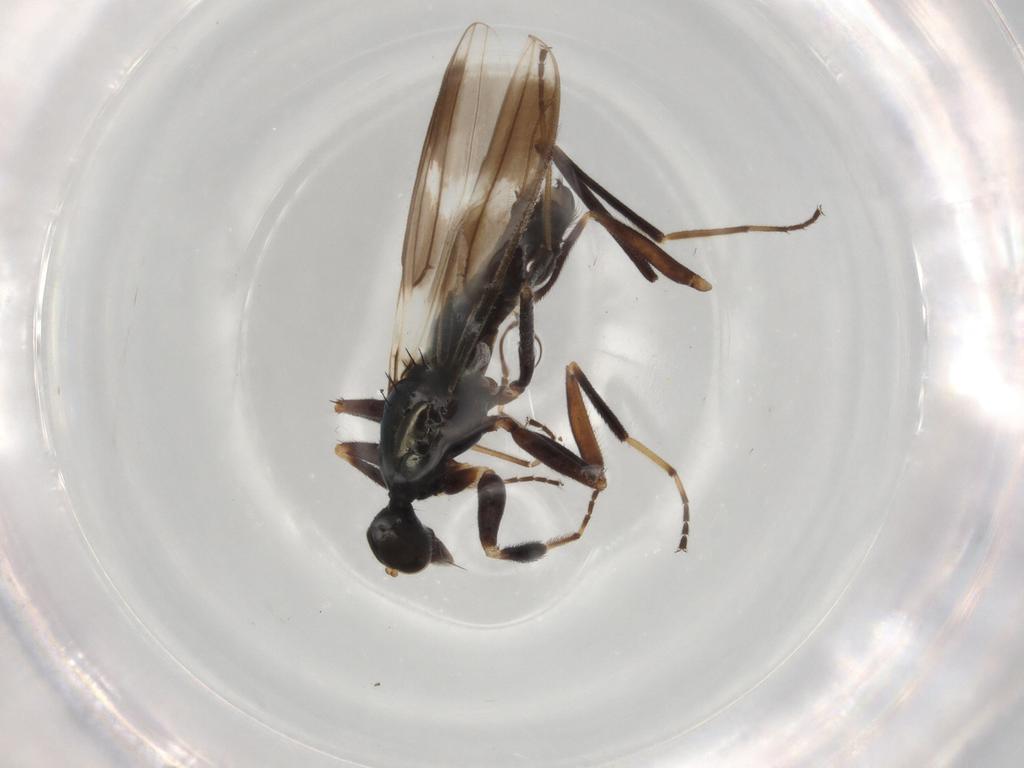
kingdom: Animalia
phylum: Arthropoda
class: Insecta
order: Diptera
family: Hybotidae
